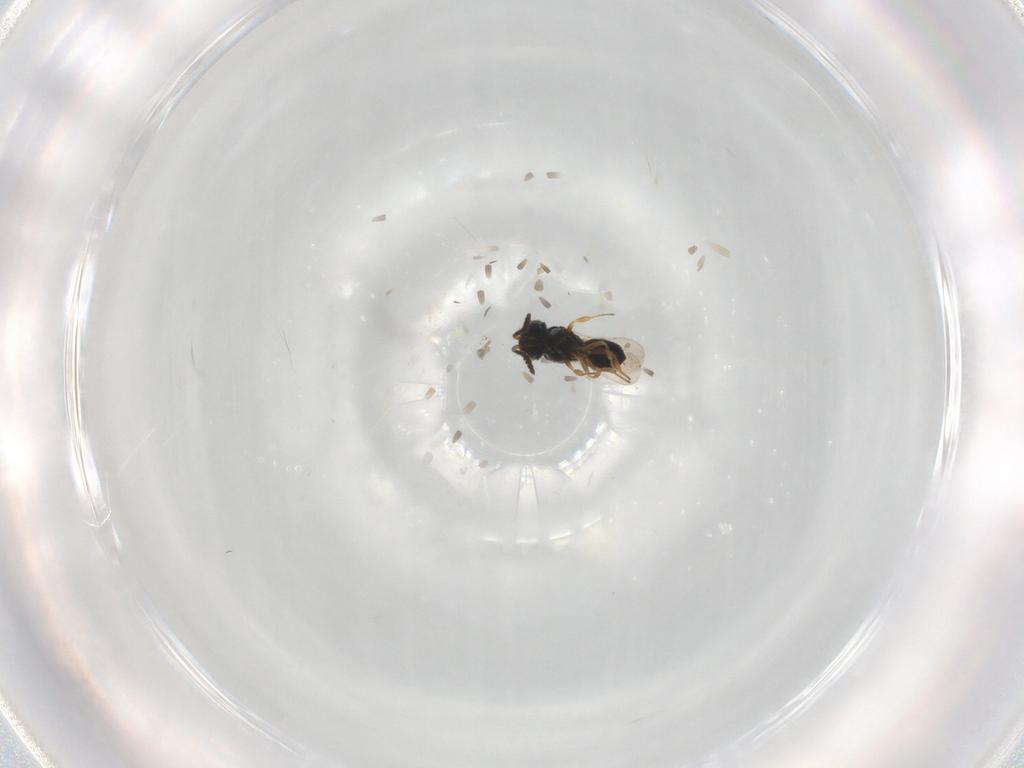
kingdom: Animalia
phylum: Arthropoda
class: Insecta
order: Hymenoptera
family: Scelionidae
